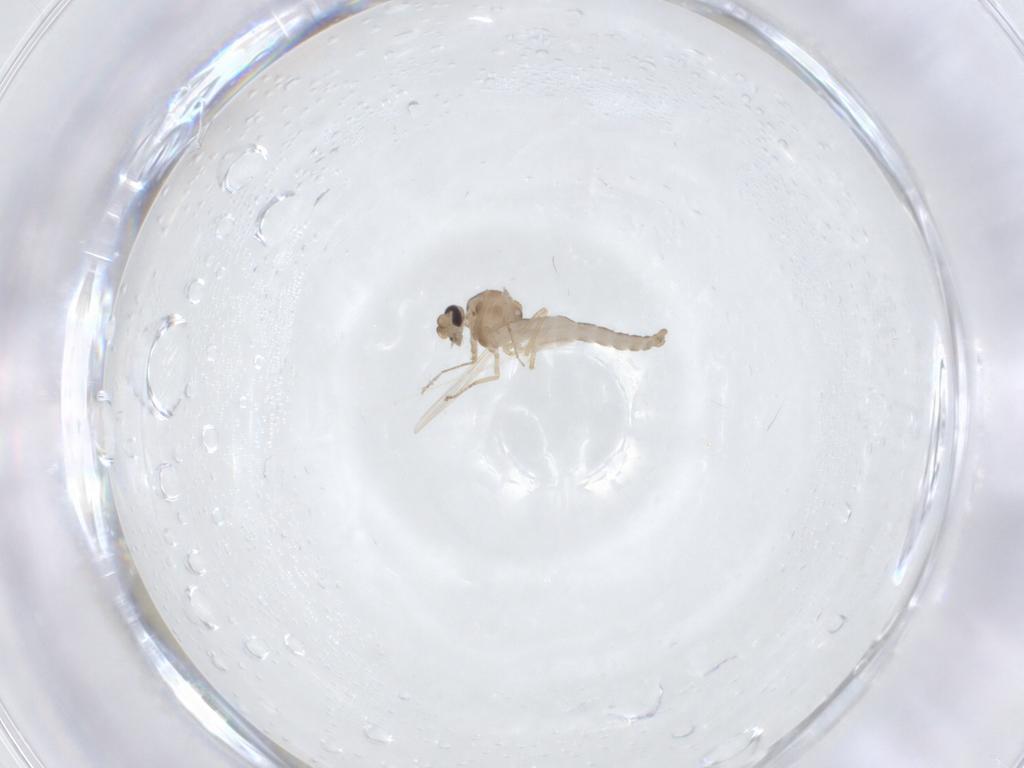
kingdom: Animalia
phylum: Arthropoda
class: Insecta
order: Diptera
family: Ceratopogonidae
